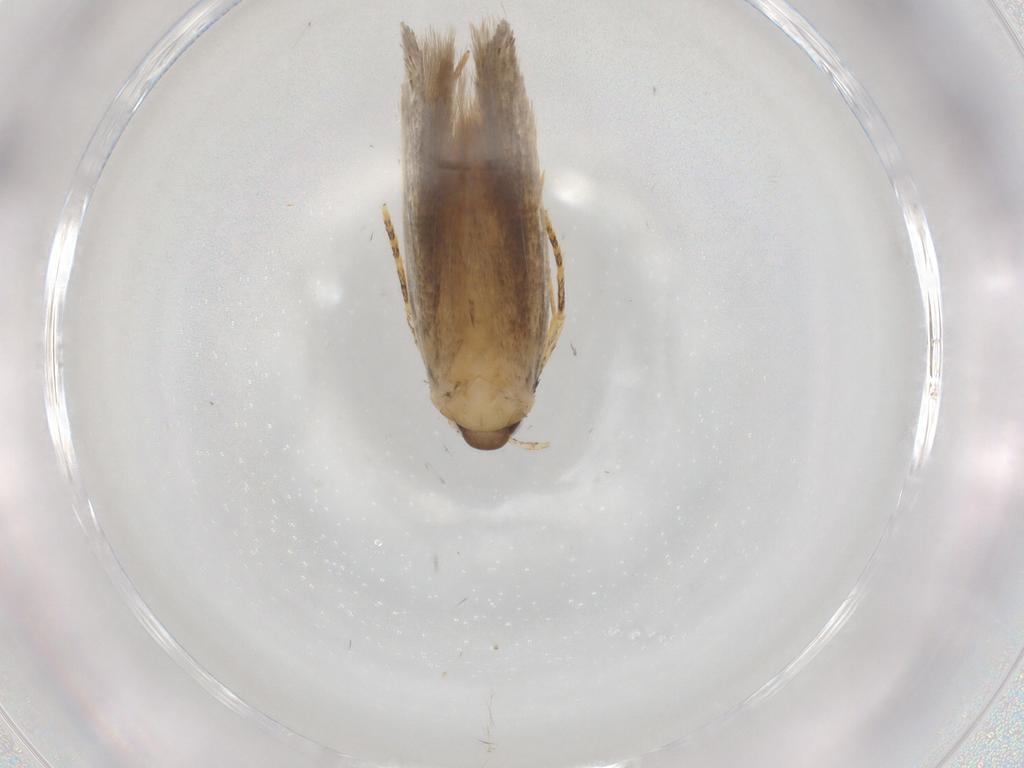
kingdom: Animalia
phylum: Arthropoda
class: Insecta
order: Lepidoptera
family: Autostichidae
